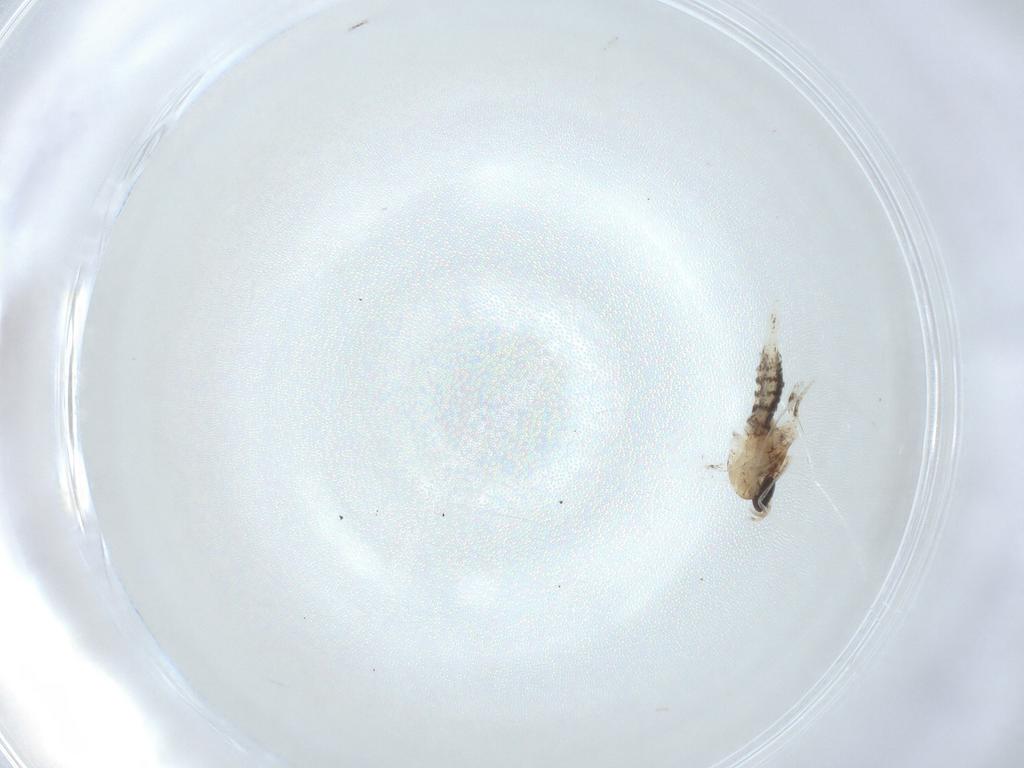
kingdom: Animalia
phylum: Arthropoda
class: Insecta
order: Diptera
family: Cecidomyiidae
